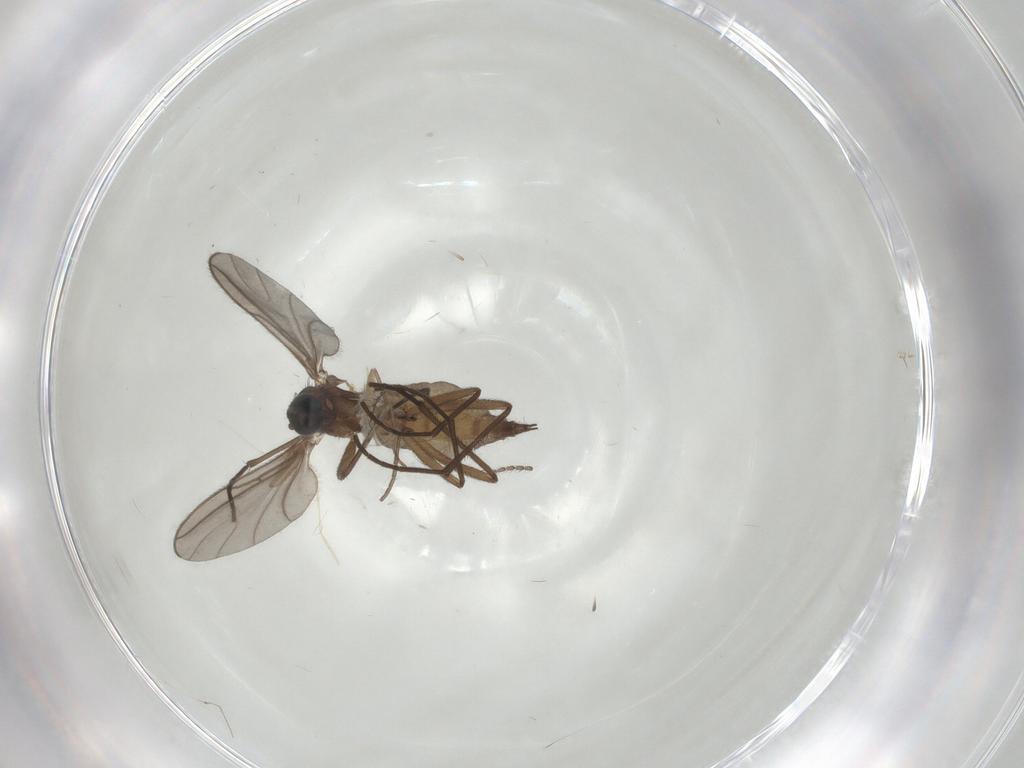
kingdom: Animalia
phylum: Arthropoda
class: Insecta
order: Diptera
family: Sciaridae
